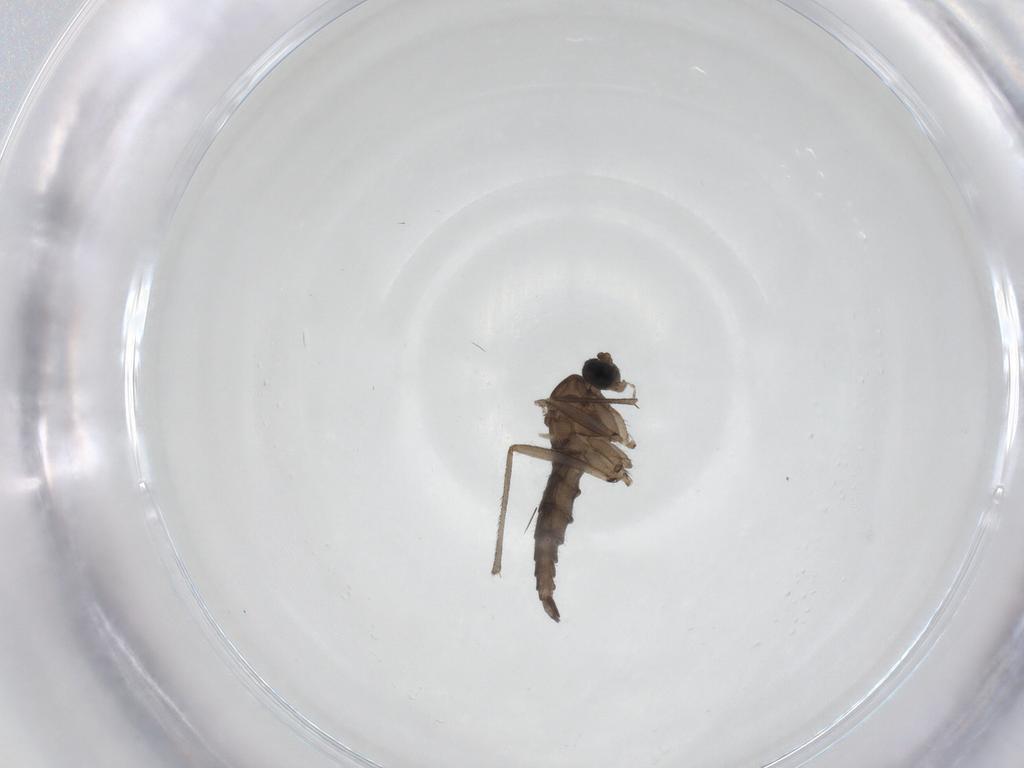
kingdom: Animalia
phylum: Arthropoda
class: Insecta
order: Diptera
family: Sciaridae
